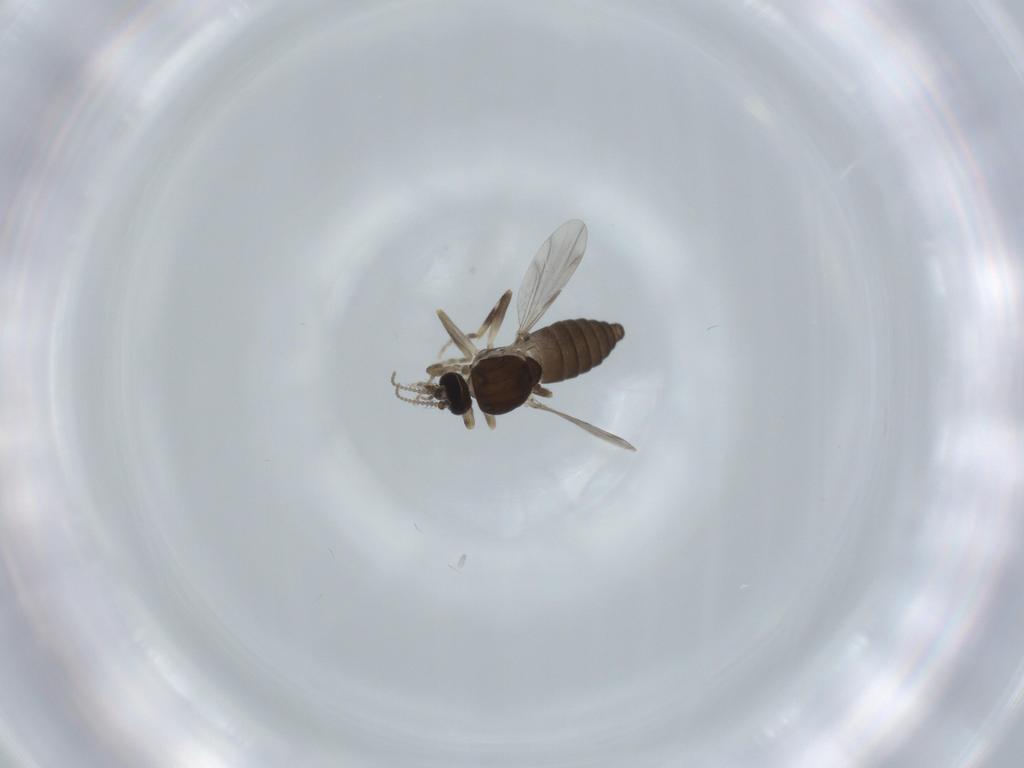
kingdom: Animalia
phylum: Arthropoda
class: Insecta
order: Diptera
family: Ceratopogonidae
